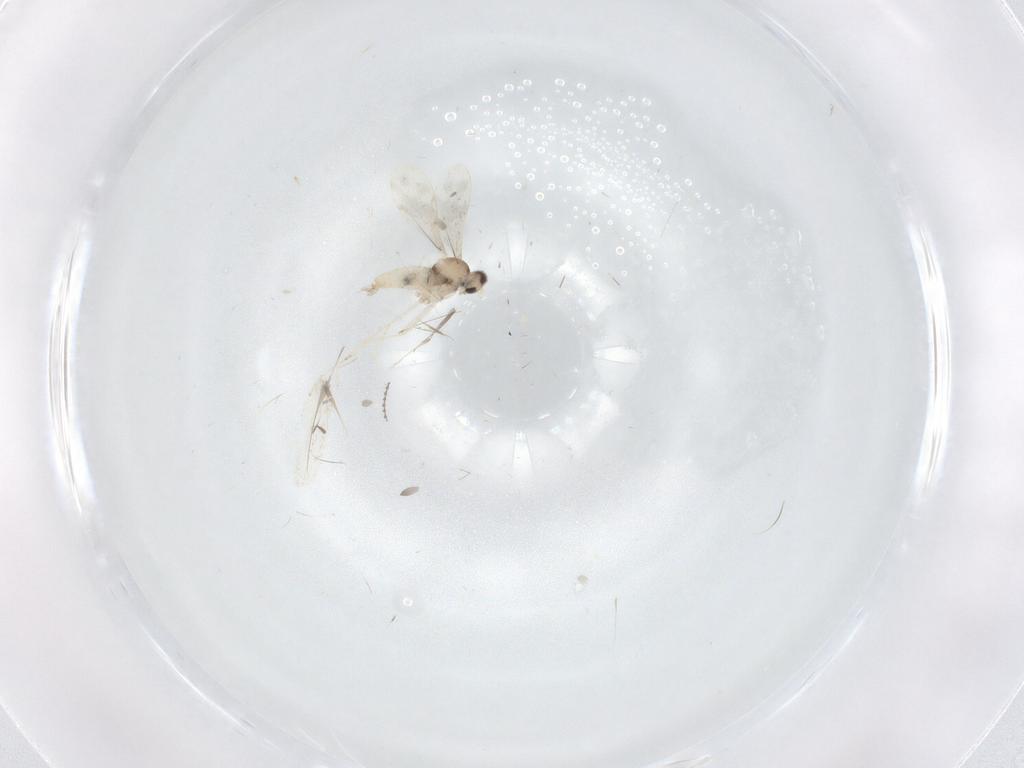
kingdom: Animalia
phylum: Arthropoda
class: Insecta
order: Diptera
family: Cecidomyiidae
